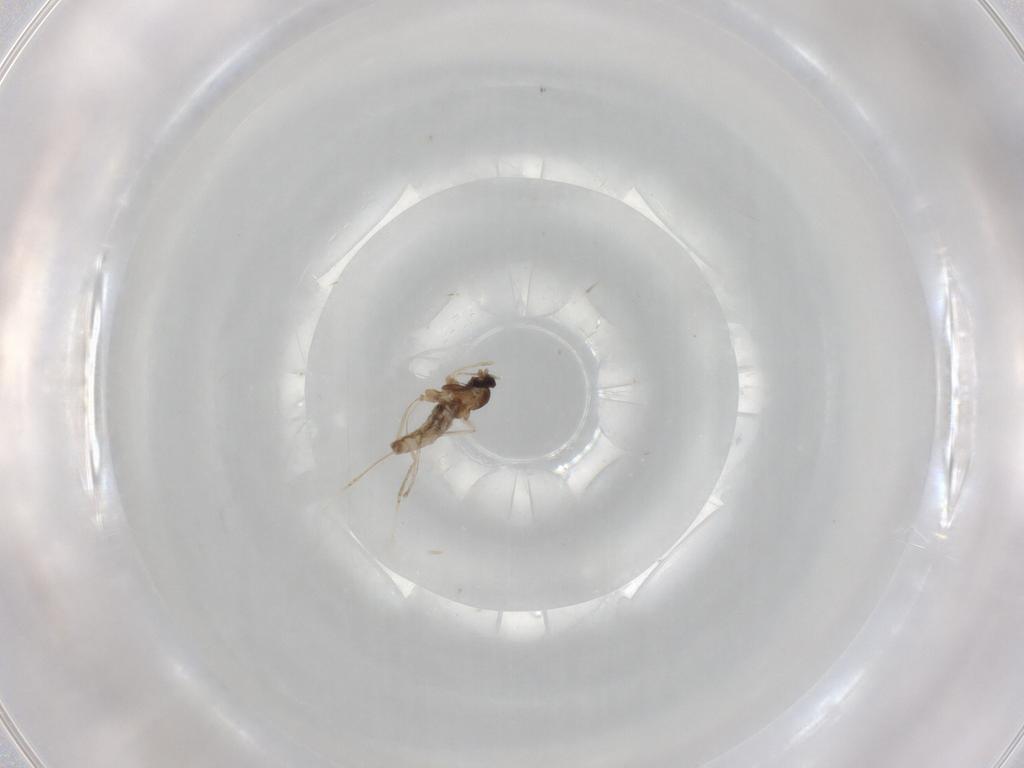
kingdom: Animalia
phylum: Arthropoda
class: Insecta
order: Diptera
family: Cecidomyiidae
